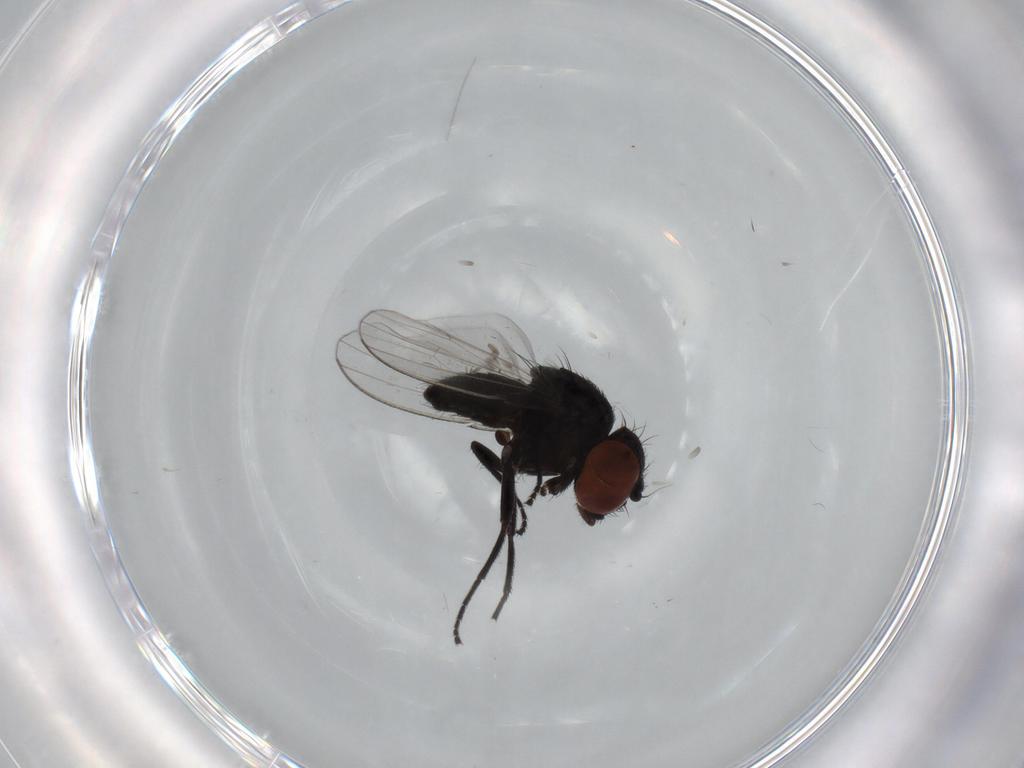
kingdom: Animalia
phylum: Arthropoda
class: Insecta
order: Diptera
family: Milichiidae
